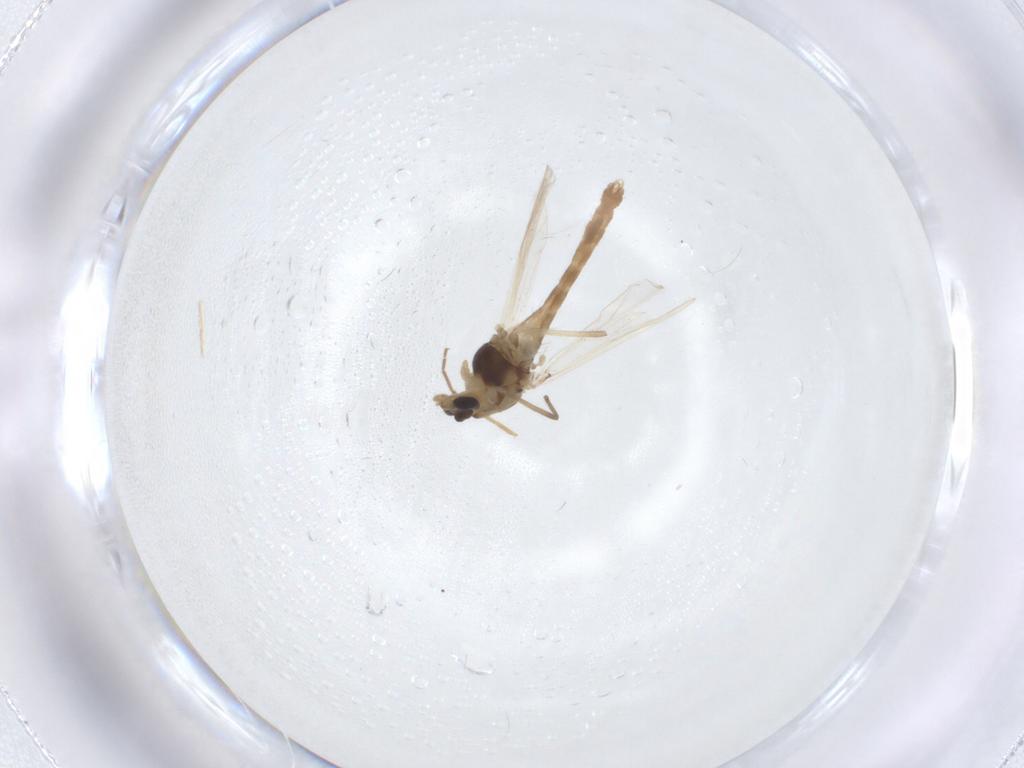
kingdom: Animalia
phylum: Arthropoda
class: Insecta
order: Diptera
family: Chironomidae
